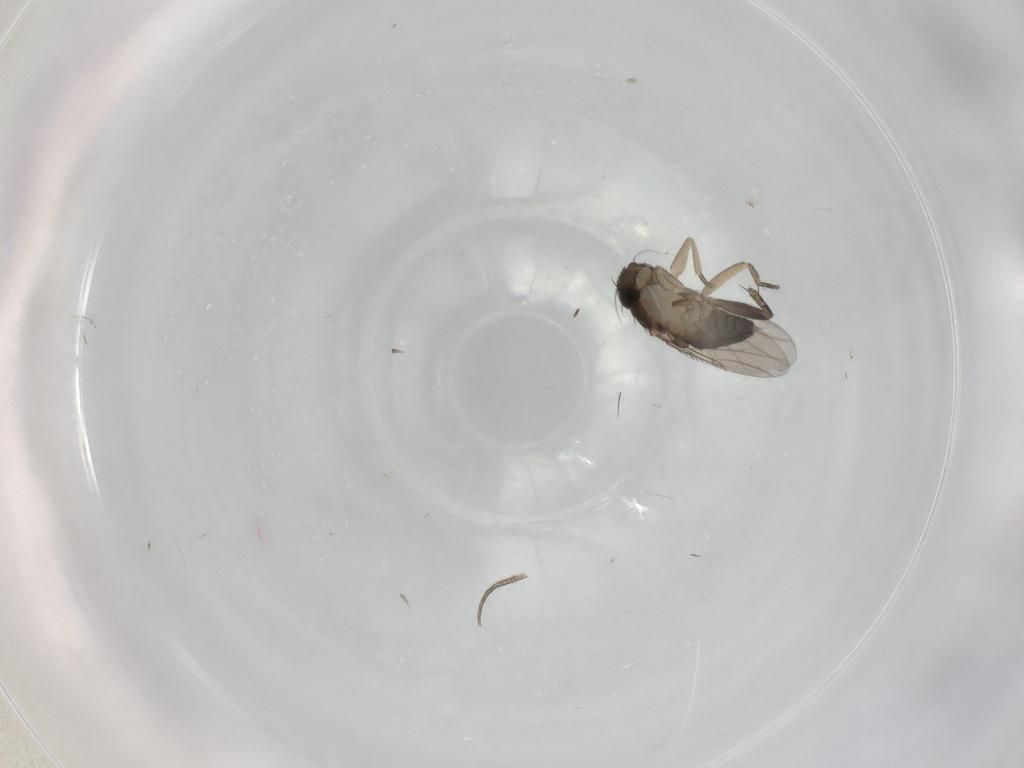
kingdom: Animalia
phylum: Arthropoda
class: Insecta
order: Diptera
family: Phoridae
